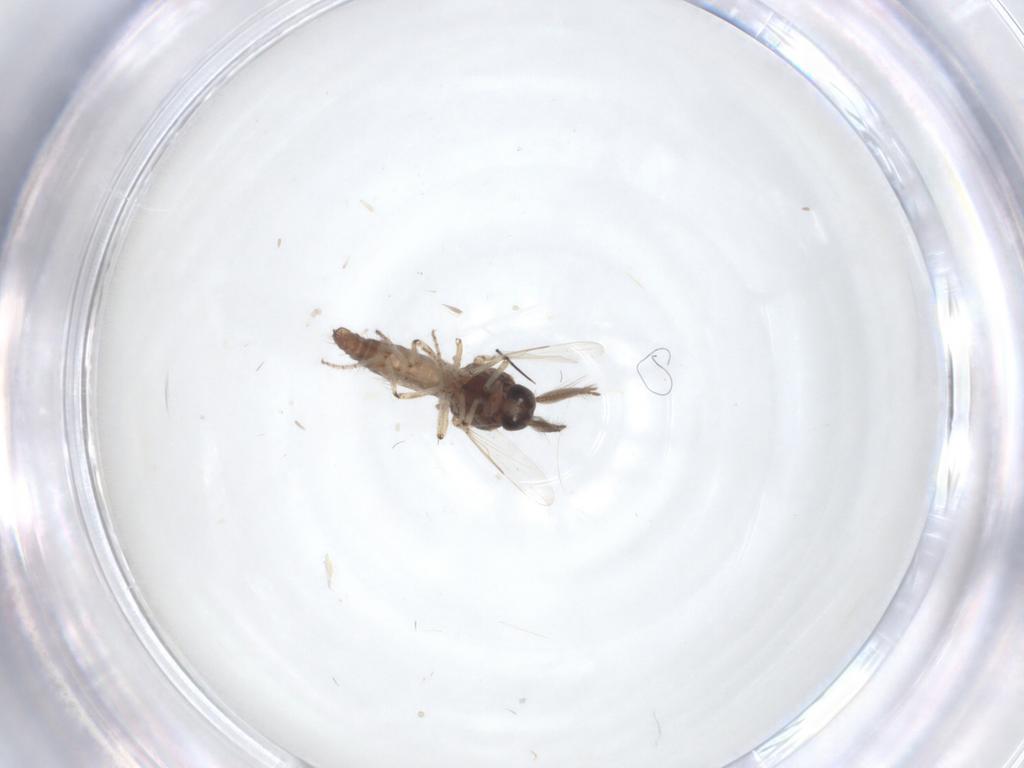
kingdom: Animalia
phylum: Arthropoda
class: Insecta
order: Diptera
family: Ceratopogonidae
